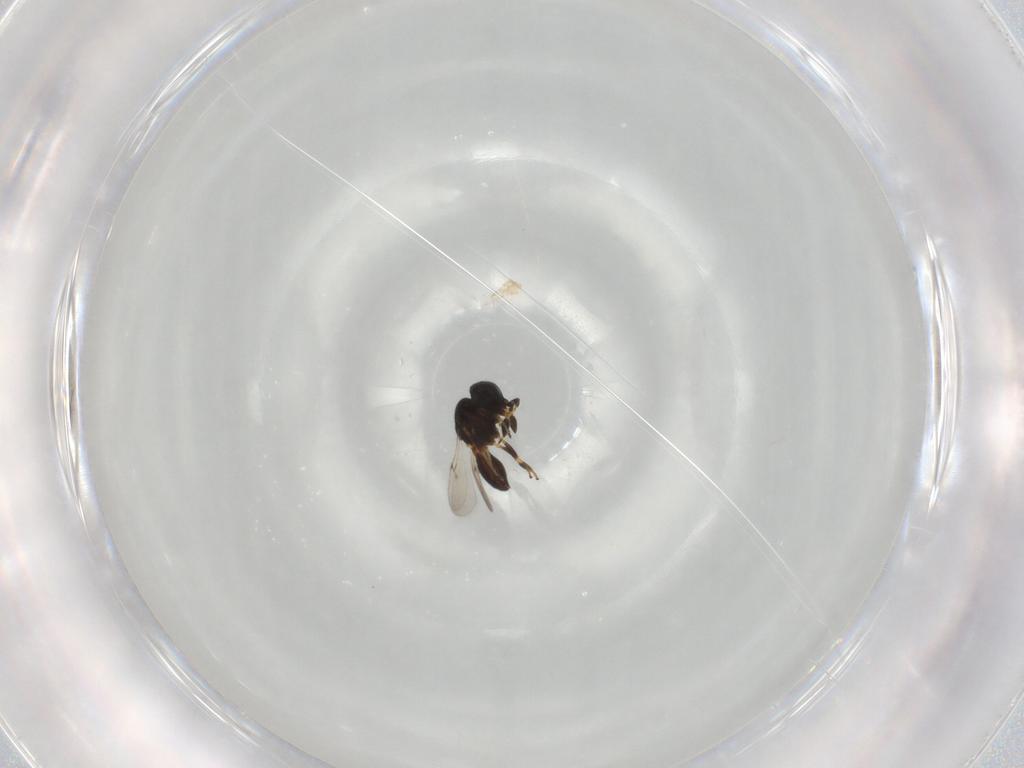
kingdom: Animalia
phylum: Arthropoda
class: Insecta
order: Hymenoptera
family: Scelionidae
